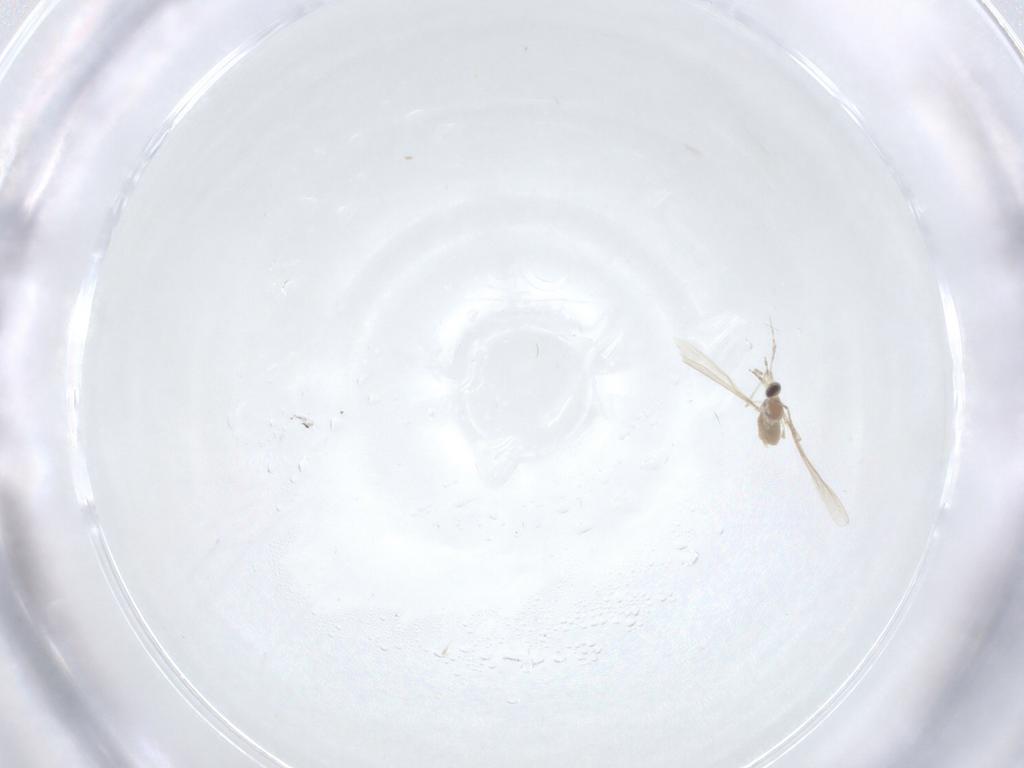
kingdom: Animalia
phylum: Arthropoda
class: Insecta
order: Diptera
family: Cecidomyiidae
